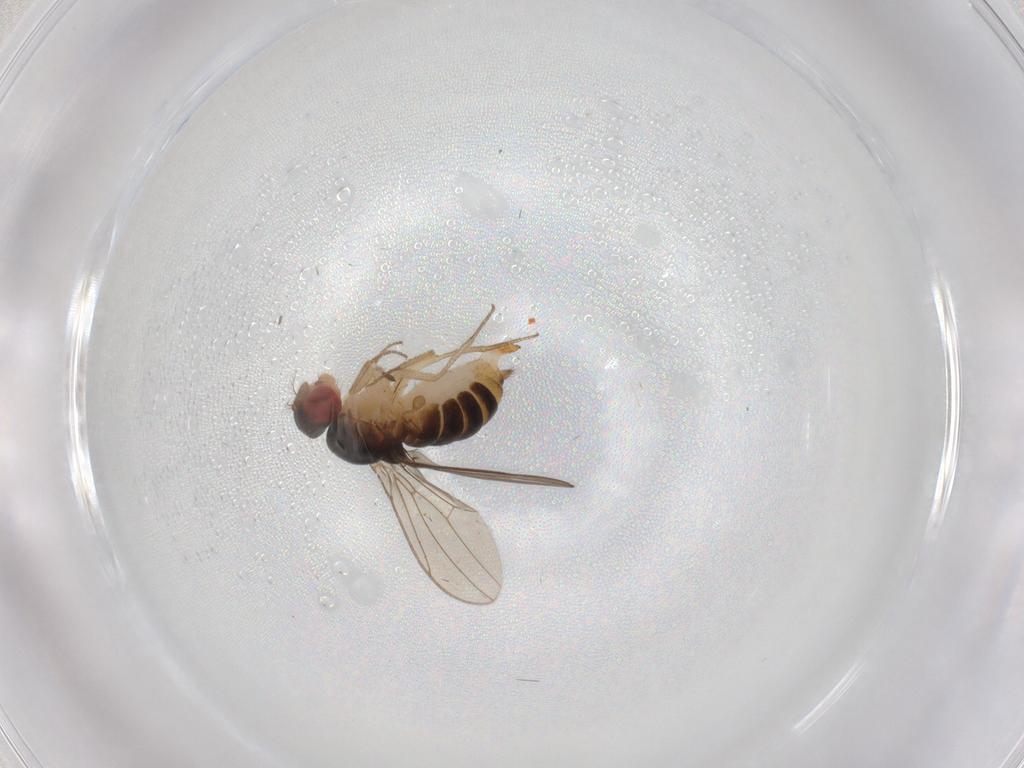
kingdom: Animalia
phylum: Arthropoda
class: Insecta
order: Diptera
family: Drosophilidae
